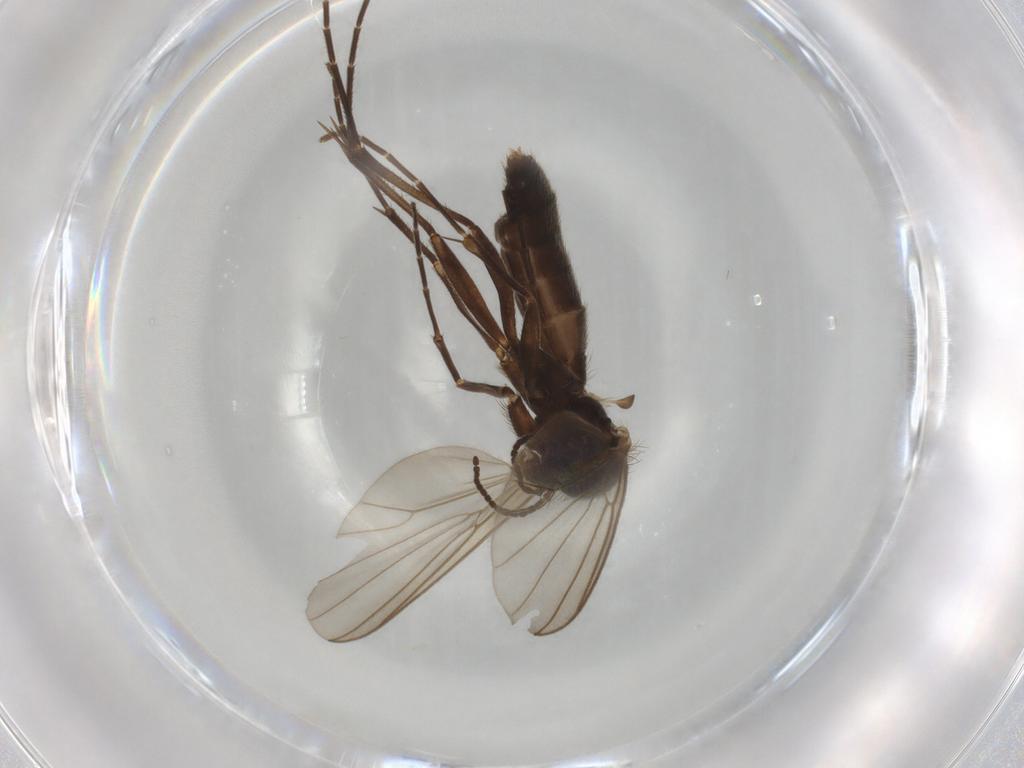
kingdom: Animalia
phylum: Arthropoda
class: Insecta
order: Diptera
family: Mycetophilidae
